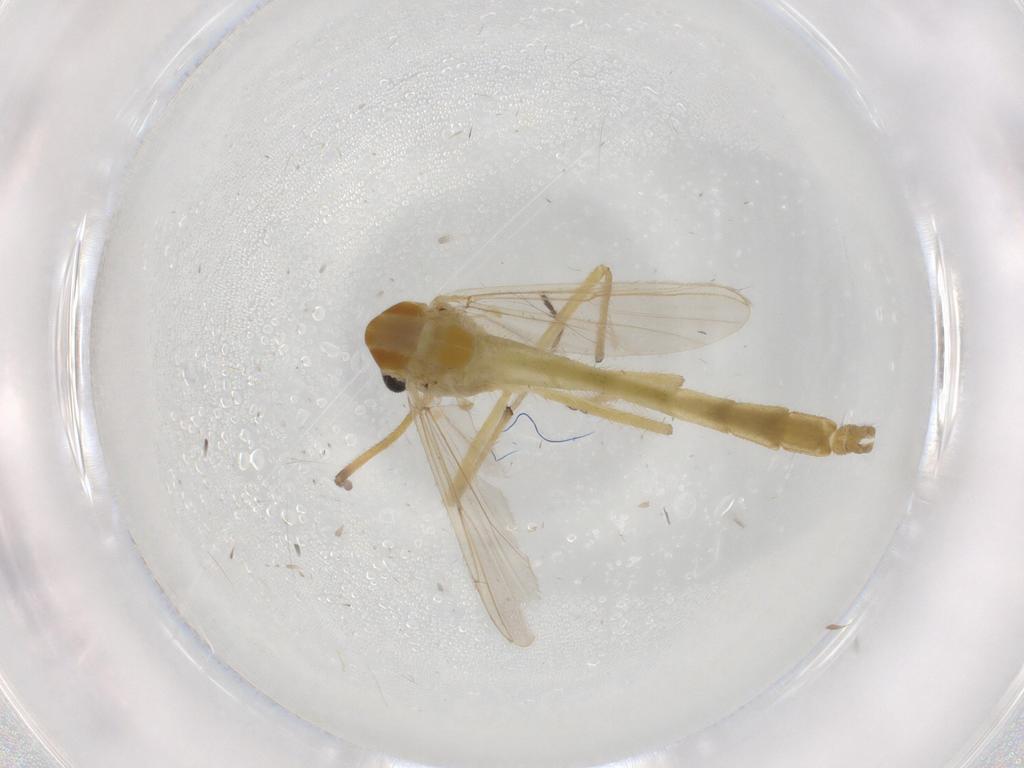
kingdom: Animalia
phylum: Arthropoda
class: Insecta
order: Diptera
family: Chironomidae
